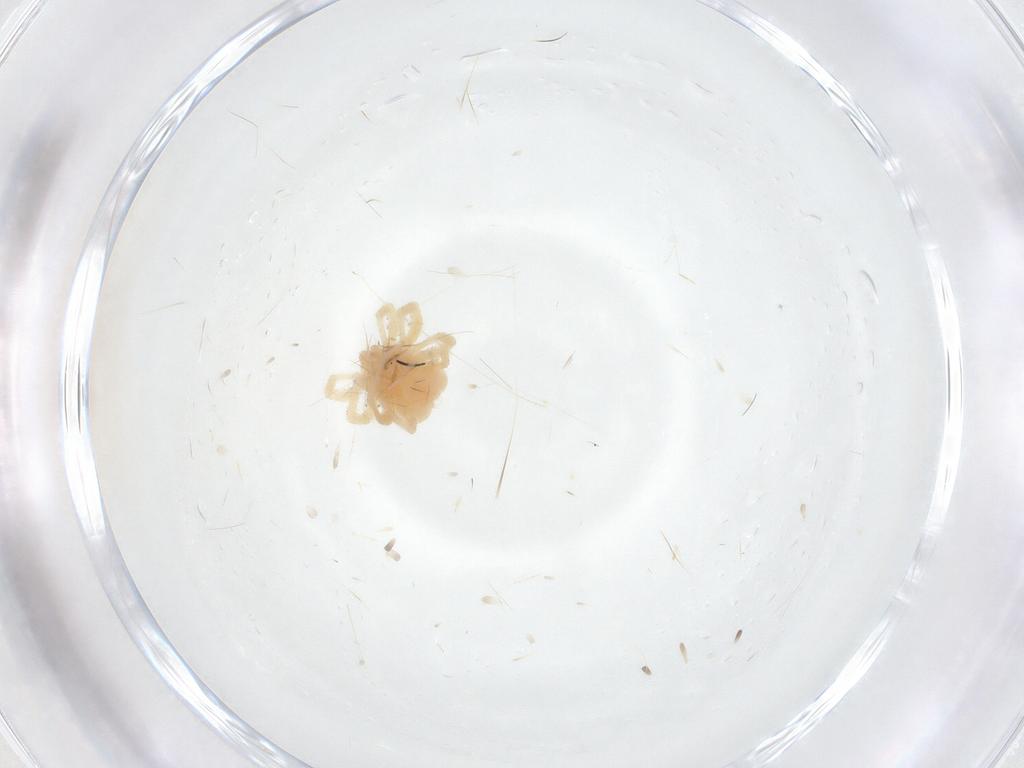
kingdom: Animalia
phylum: Arthropoda
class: Arachnida
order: Trombidiformes
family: Anystidae
